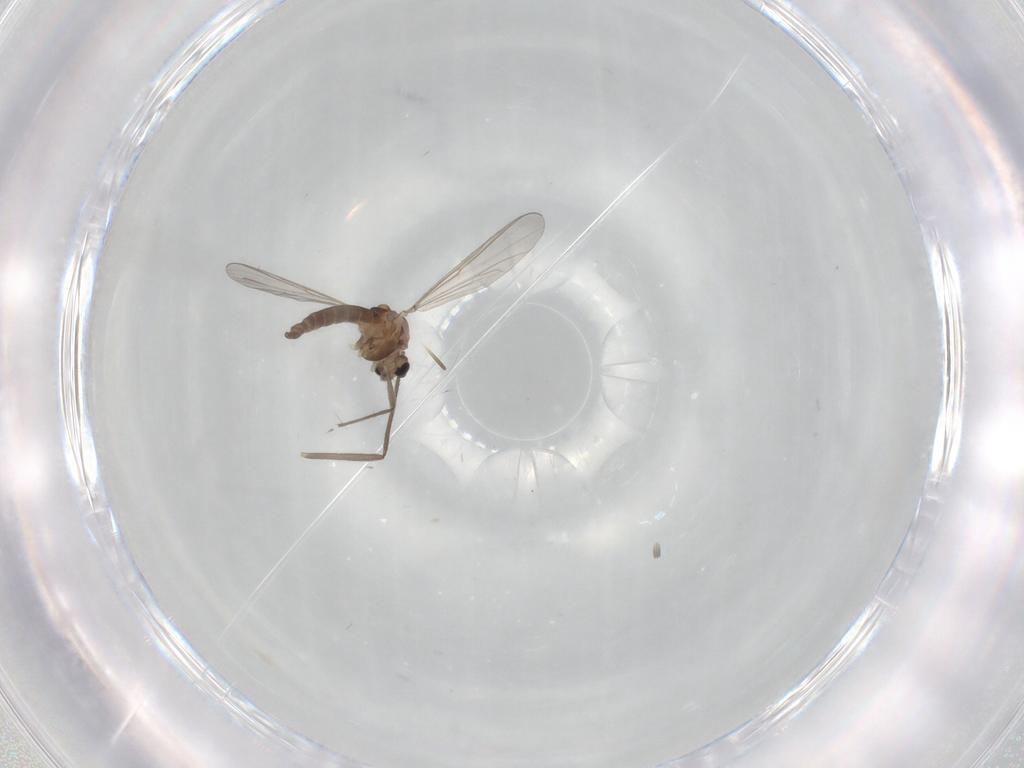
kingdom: Animalia
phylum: Arthropoda
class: Insecta
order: Diptera
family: Chironomidae
